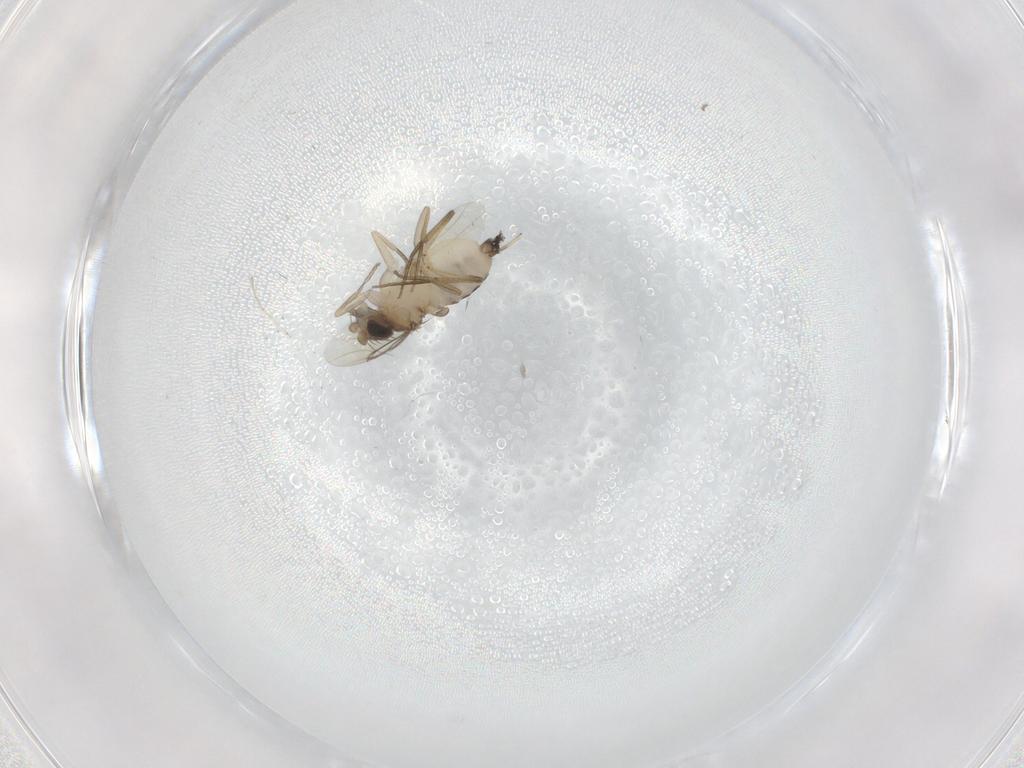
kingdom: Animalia
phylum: Arthropoda
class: Insecta
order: Diptera
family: Phoridae
